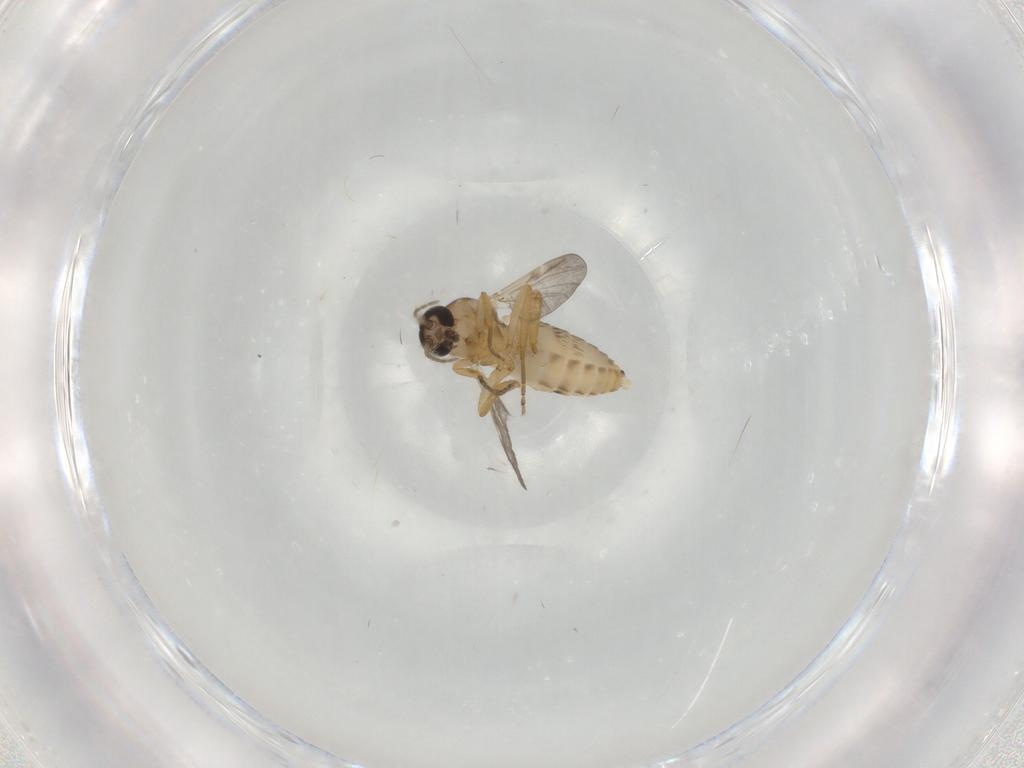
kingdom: Animalia
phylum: Arthropoda
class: Insecta
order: Diptera
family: Ceratopogonidae
